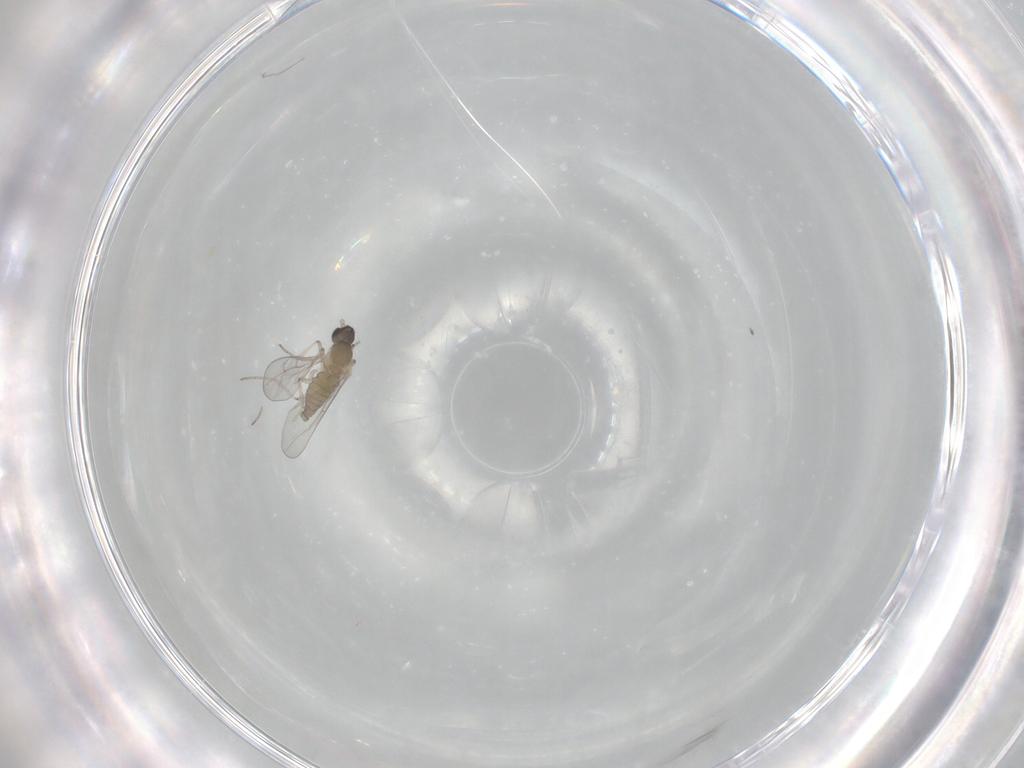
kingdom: Animalia
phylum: Arthropoda
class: Insecta
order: Diptera
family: Cecidomyiidae
